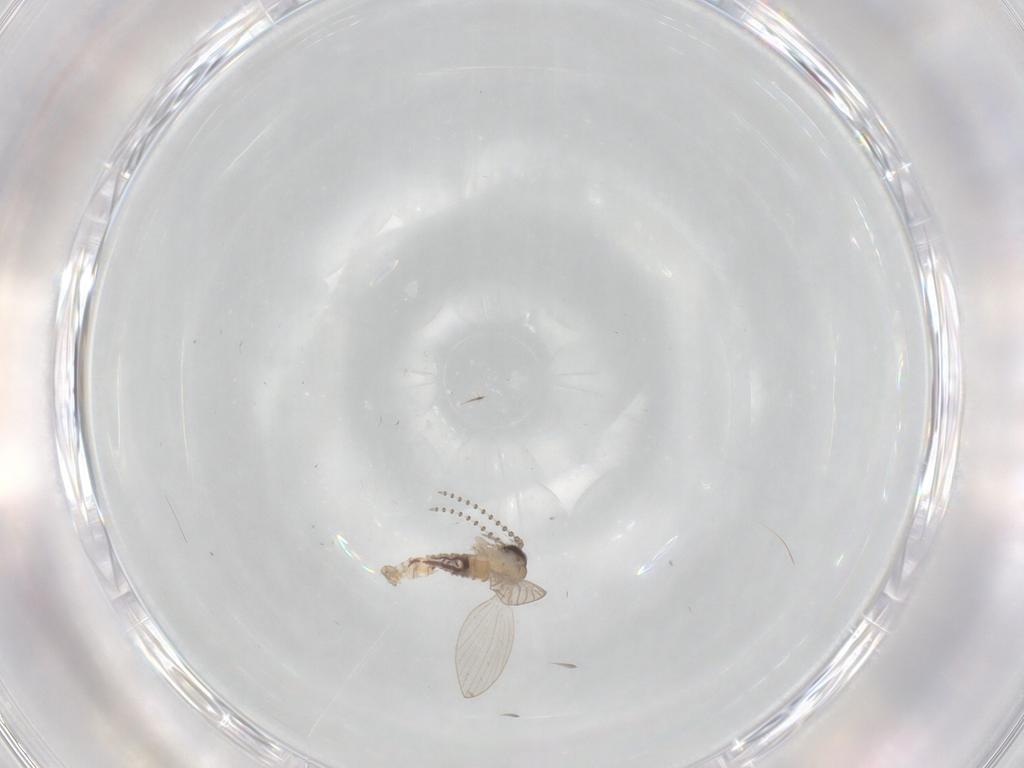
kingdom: Animalia
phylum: Arthropoda
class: Insecta
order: Diptera
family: Psychodidae
